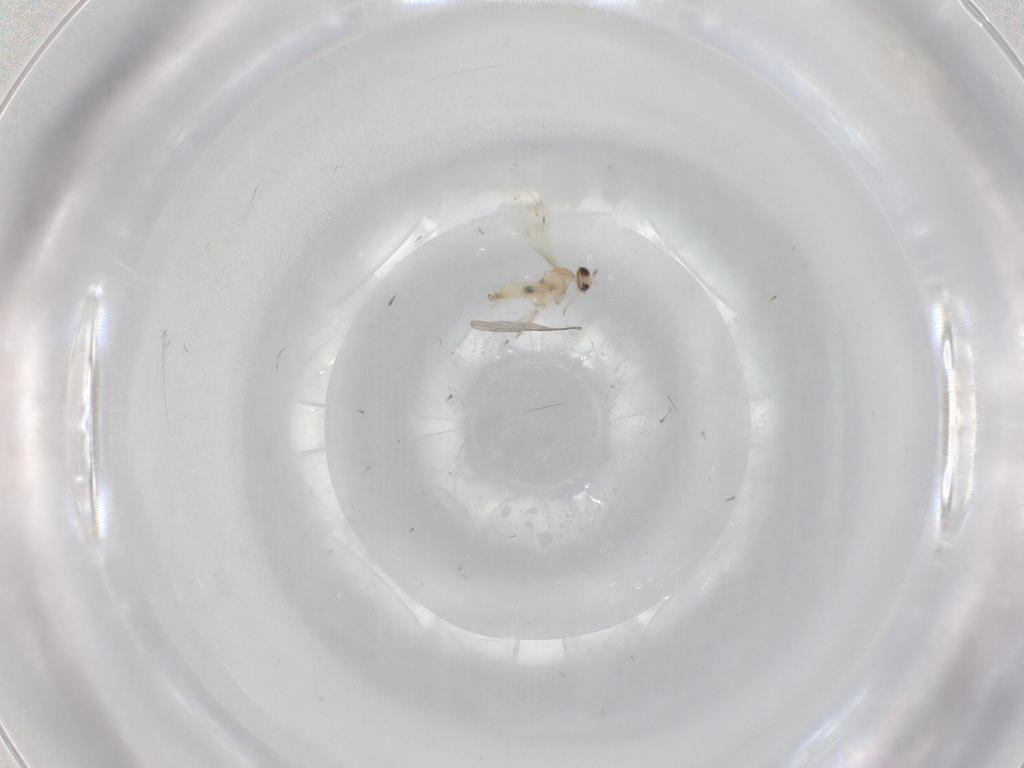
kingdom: Animalia
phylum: Arthropoda
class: Insecta
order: Diptera
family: Cecidomyiidae
